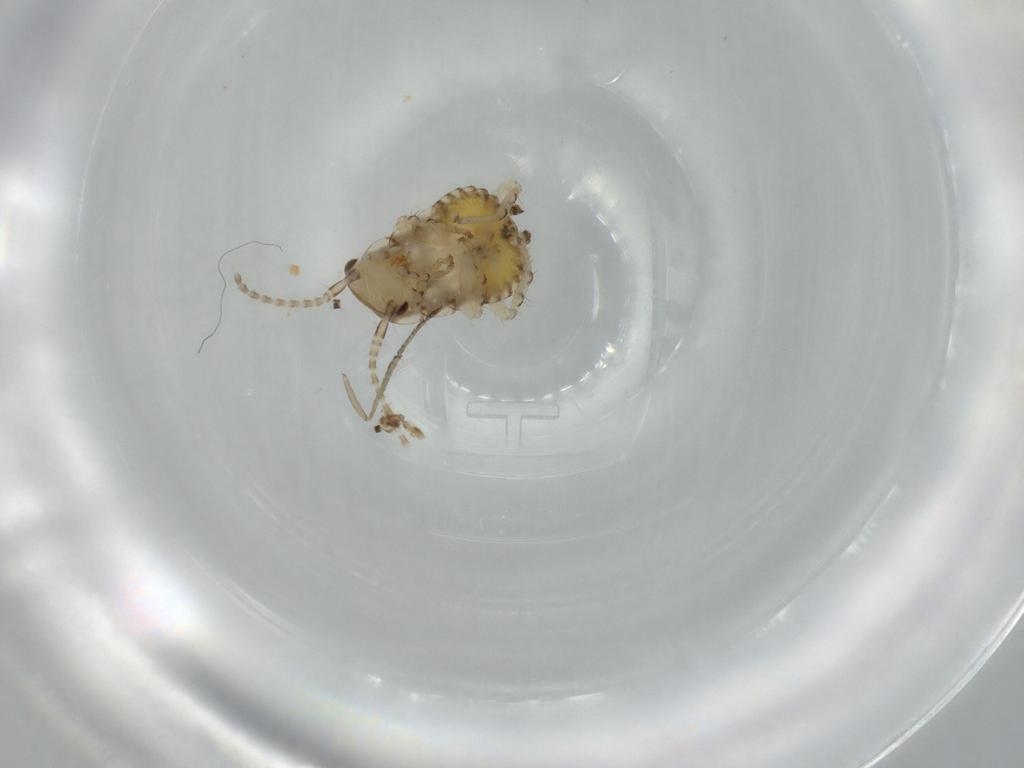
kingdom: Animalia
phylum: Arthropoda
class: Insecta
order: Blattodea
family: Ectobiidae
